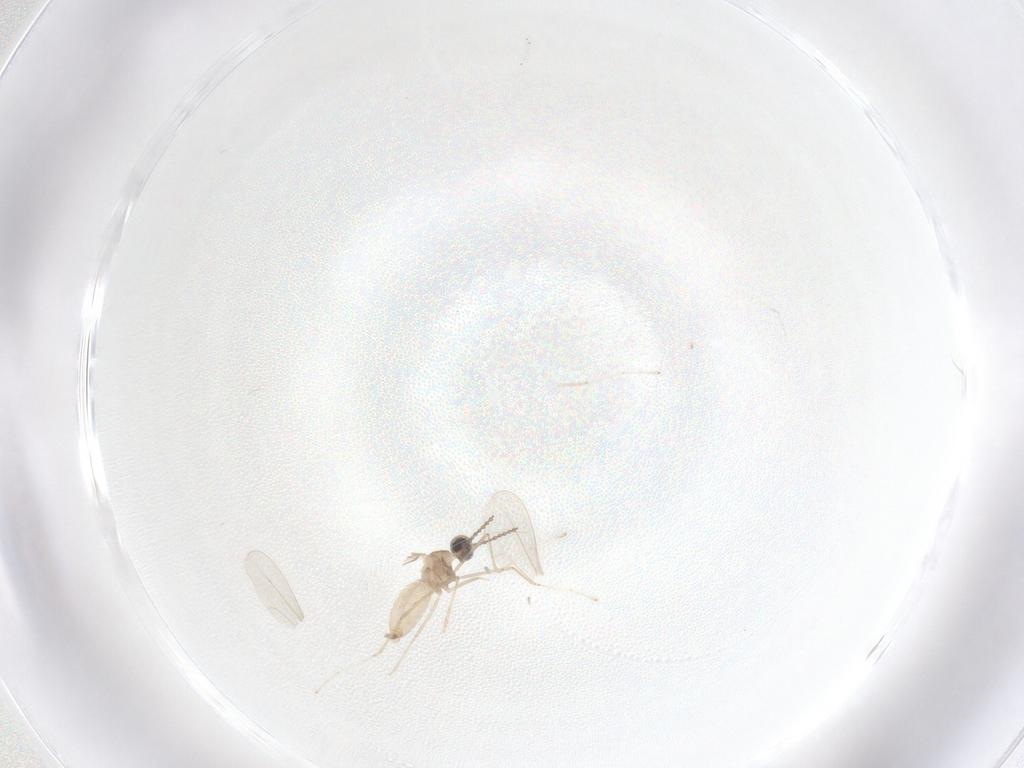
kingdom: Animalia
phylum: Arthropoda
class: Insecta
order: Diptera
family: Cecidomyiidae
